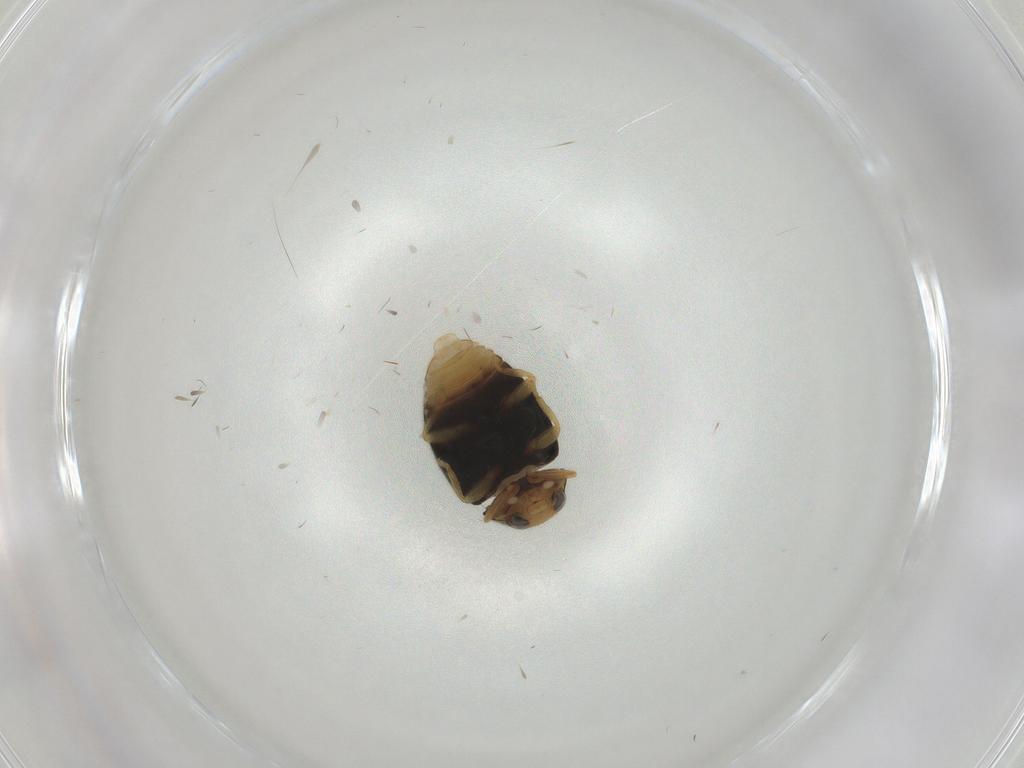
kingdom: Animalia
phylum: Arthropoda
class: Insecta
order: Coleoptera
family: Coccinellidae
